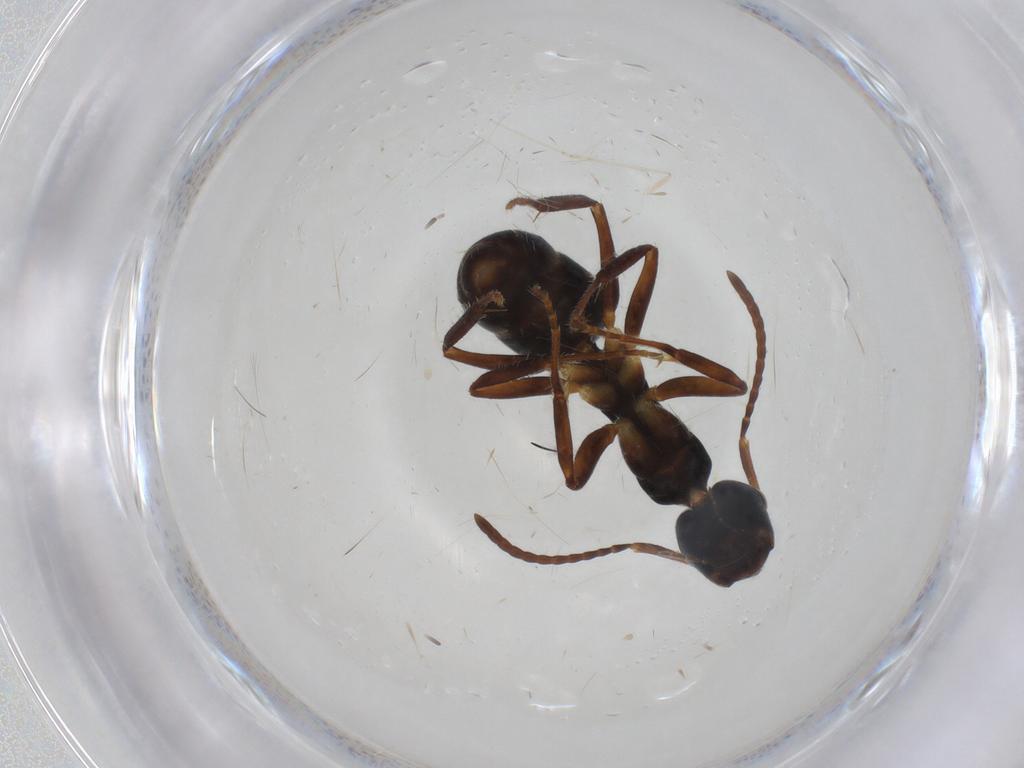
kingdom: Animalia
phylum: Arthropoda
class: Insecta
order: Hymenoptera
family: Formicidae
